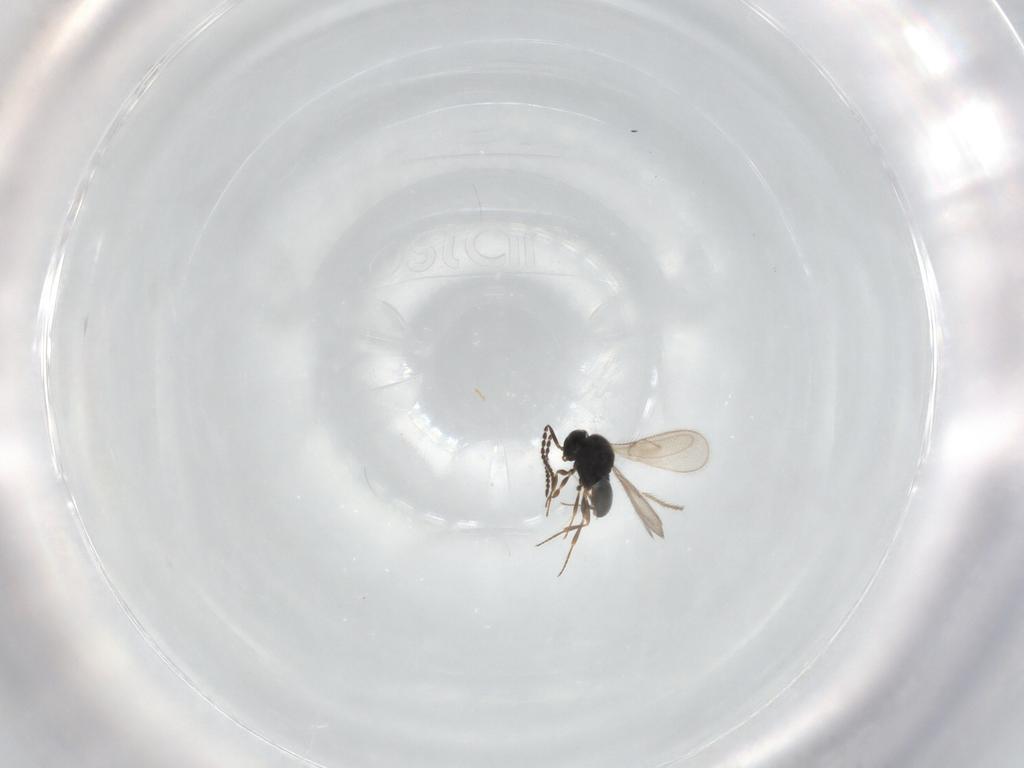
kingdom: Animalia
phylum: Arthropoda
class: Insecta
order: Hymenoptera
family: Scelionidae
